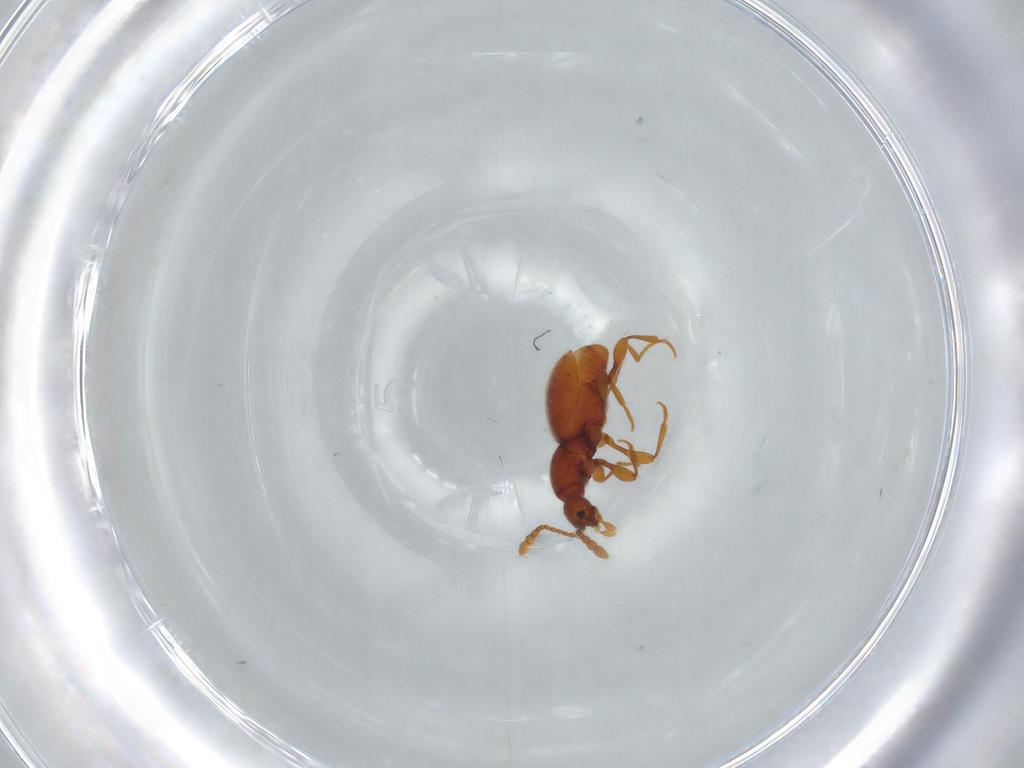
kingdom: Animalia
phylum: Arthropoda
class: Insecta
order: Coleoptera
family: Staphylinidae
